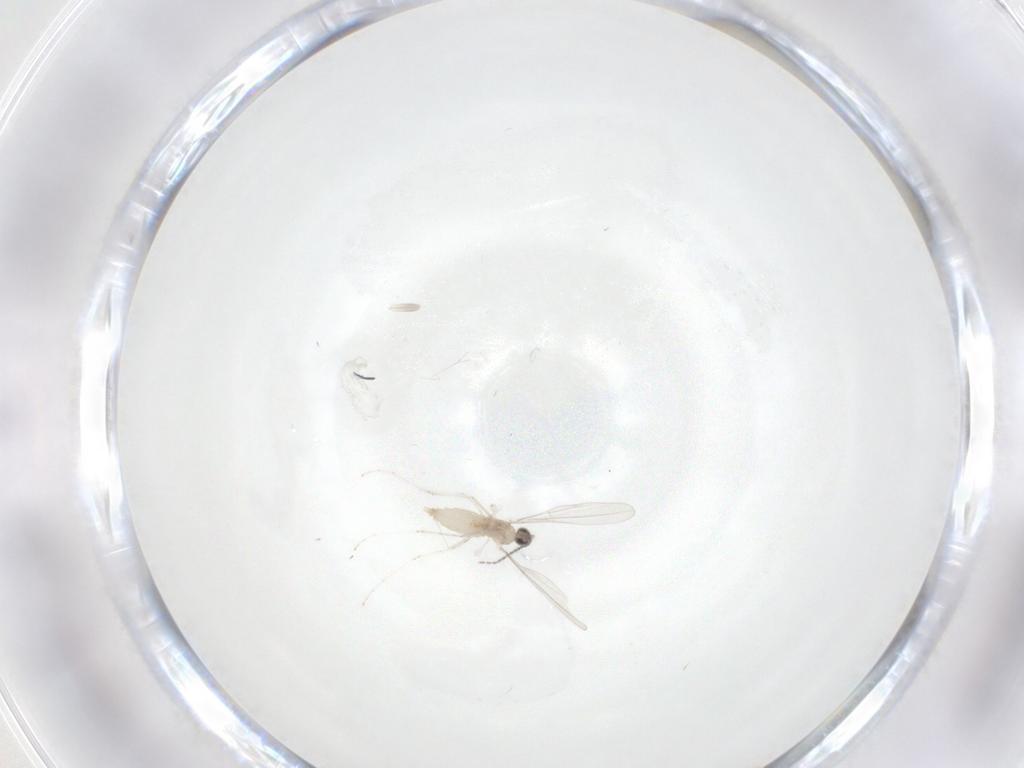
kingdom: Animalia
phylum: Arthropoda
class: Insecta
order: Diptera
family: Cecidomyiidae
